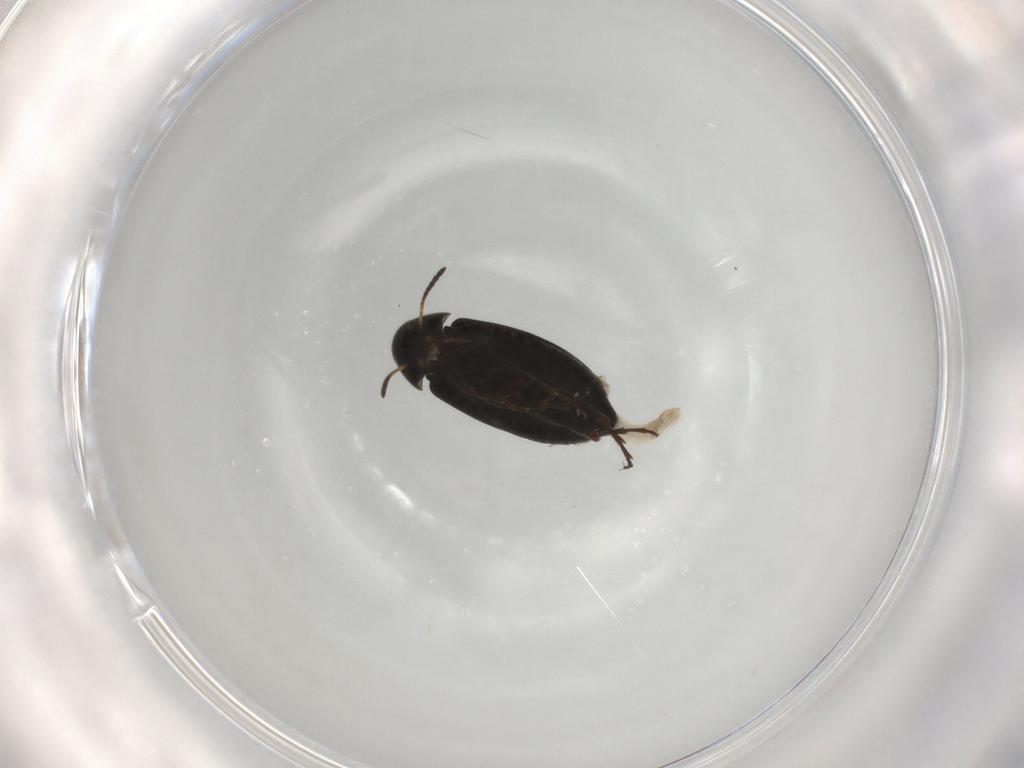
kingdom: Animalia
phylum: Arthropoda
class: Insecta
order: Coleoptera
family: Scraptiidae
